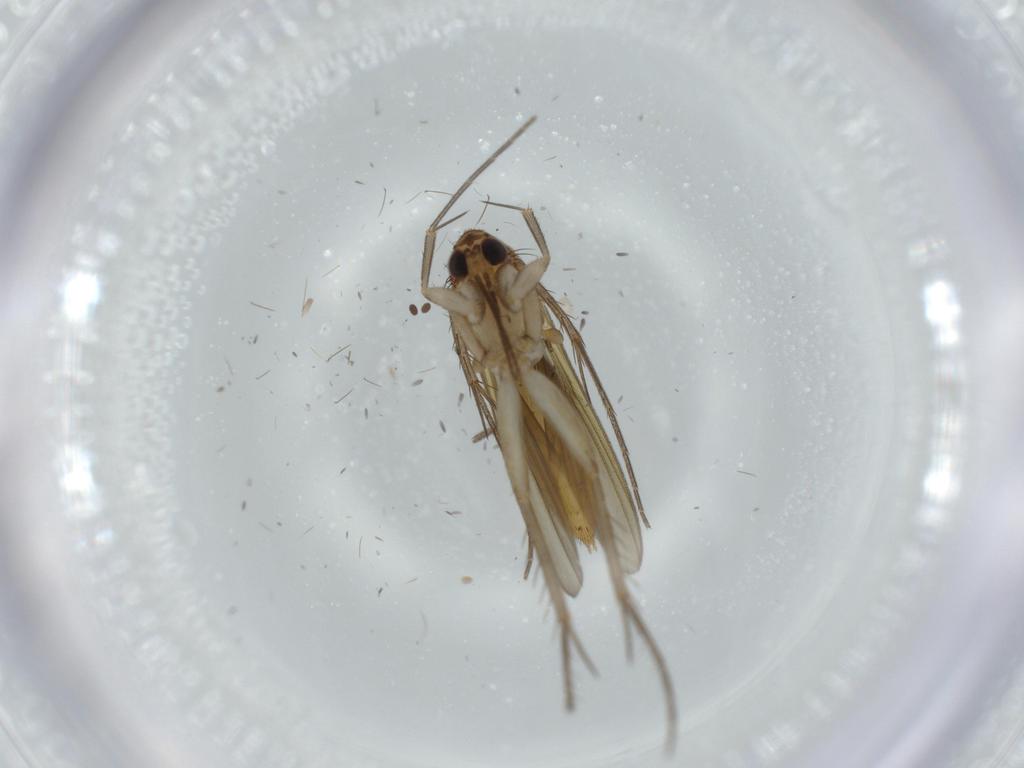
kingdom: Animalia
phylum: Arthropoda
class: Insecta
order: Diptera
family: Mycetophilidae
